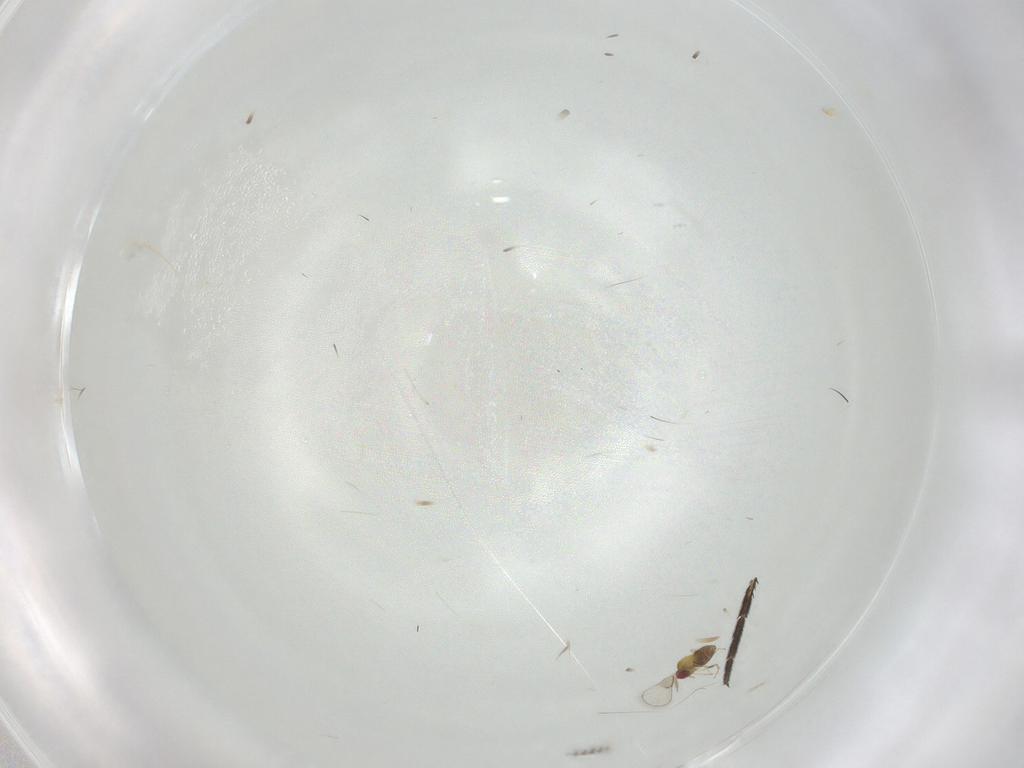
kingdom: Animalia
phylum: Arthropoda
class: Insecta
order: Hymenoptera
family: Braconidae
